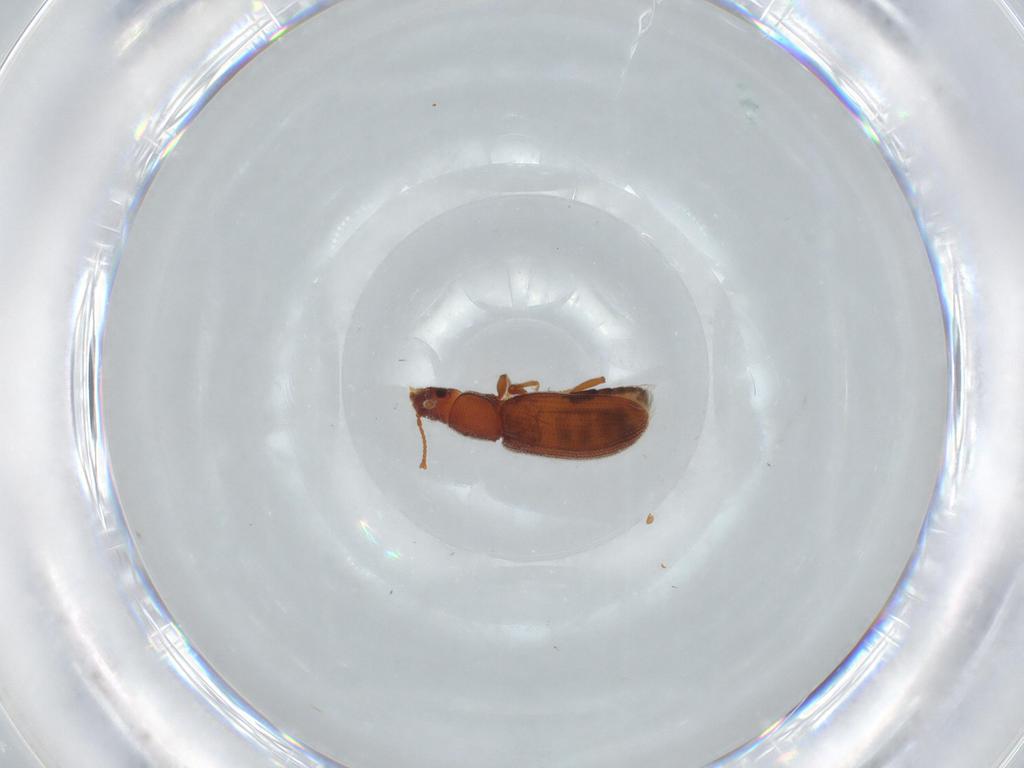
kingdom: Animalia
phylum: Arthropoda
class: Insecta
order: Coleoptera
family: Mycetophagidae
